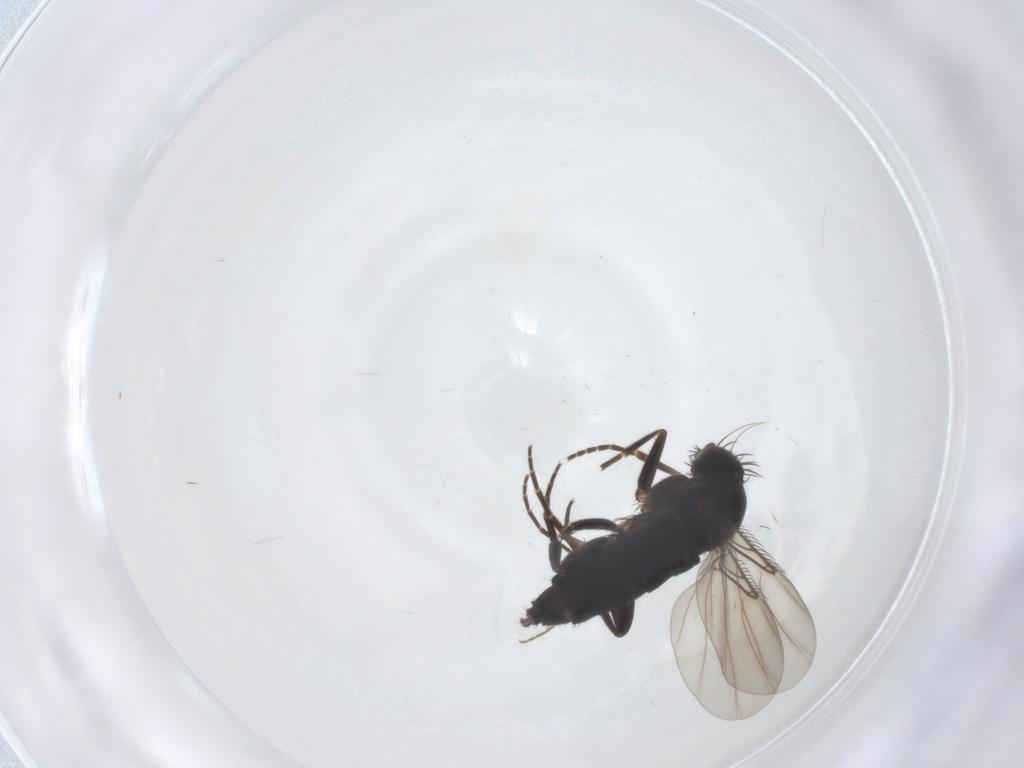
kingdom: Animalia
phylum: Arthropoda
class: Insecta
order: Diptera
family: Phoridae
